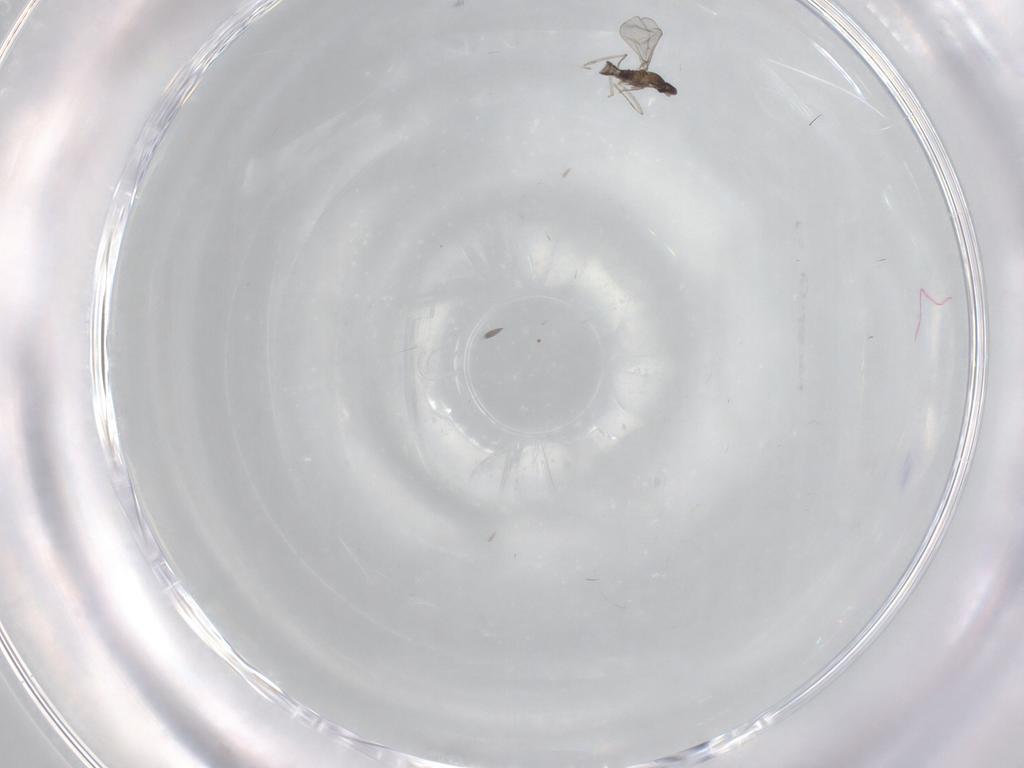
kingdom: Animalia
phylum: Arthropoda
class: Insecta
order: Diptera
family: Cecidomyiidae
